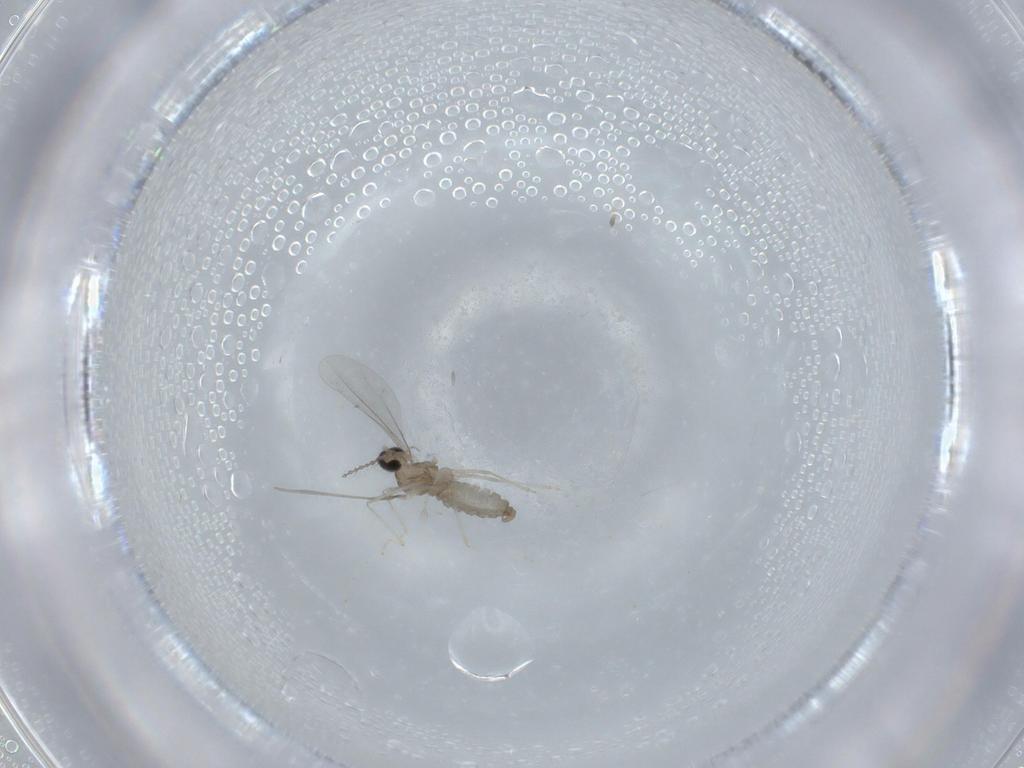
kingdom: Animalia
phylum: Arthropoda
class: Insecta
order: Diptera
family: Cecidomyiidae
